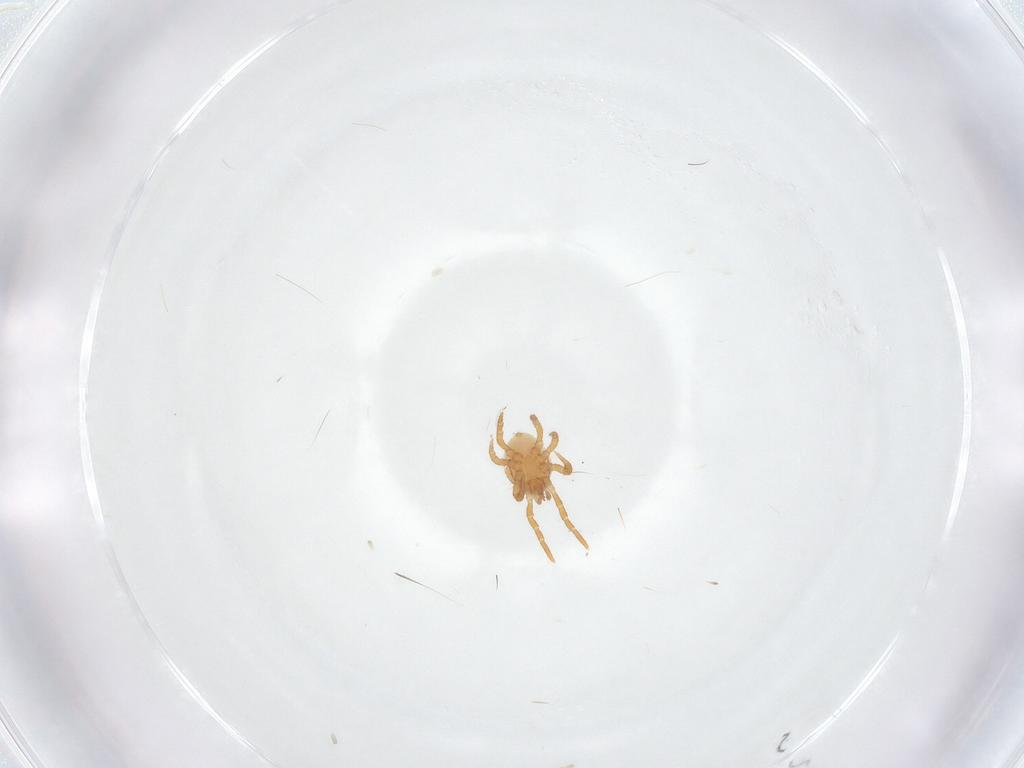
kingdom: Animalia
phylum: Arthropoda
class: Arachnida
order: Mesostigmata
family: Parasitidae
